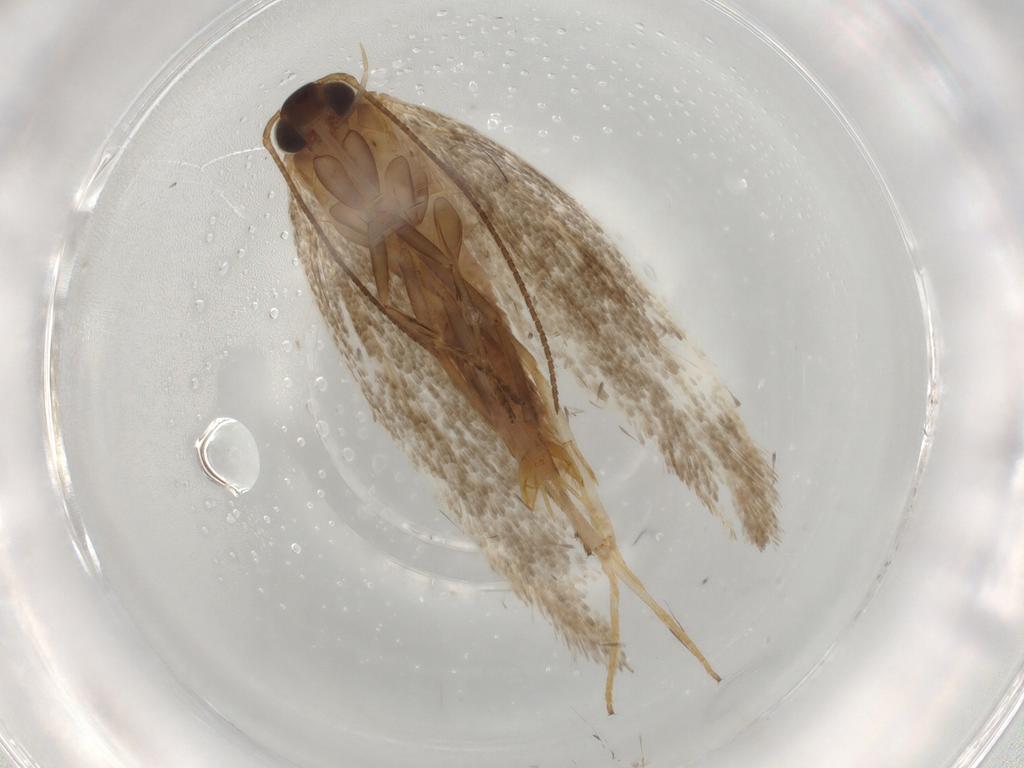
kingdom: Animalia
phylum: Arthropoda
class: Insecta
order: Lepidoptera
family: Oecophoridae
